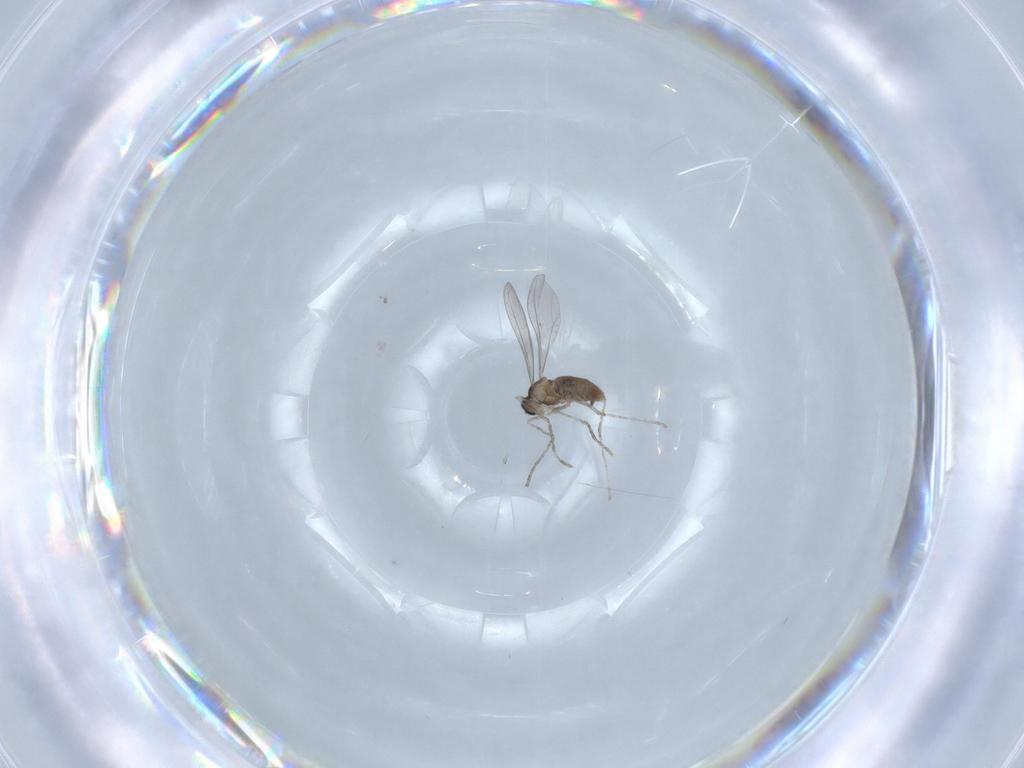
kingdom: Animalia
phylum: Arthropoda
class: Insecta
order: Diptera
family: Cecidomyiidae
